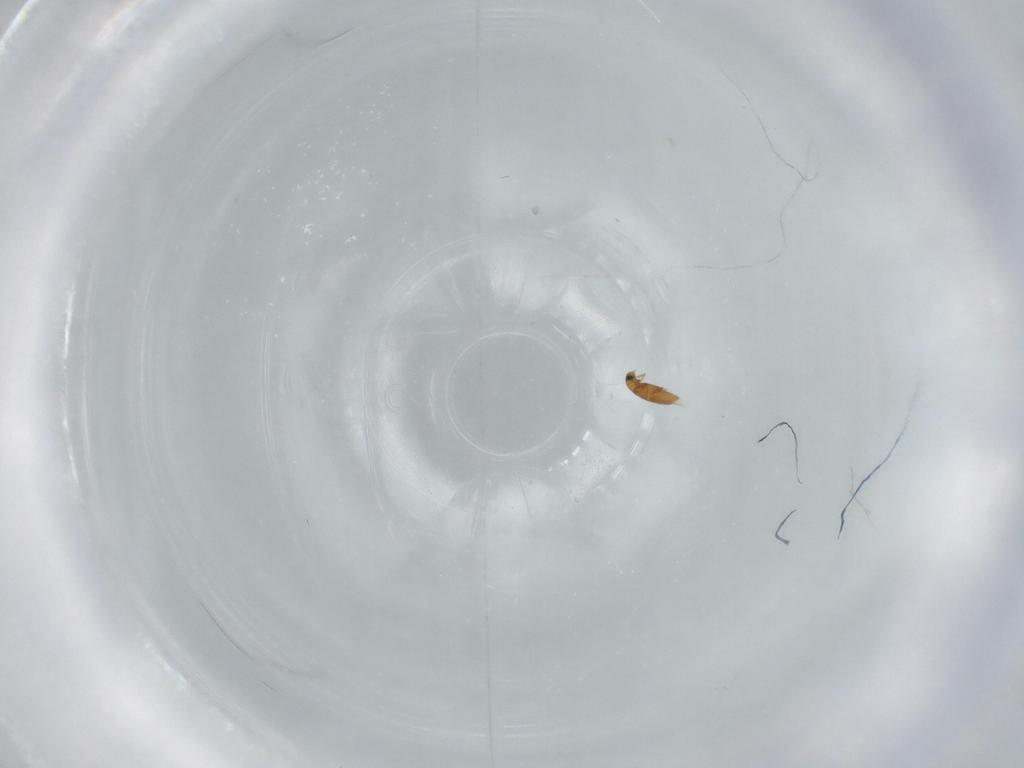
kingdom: Animalia
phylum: Arthropoda
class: Insecta
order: Coleoptera
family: Ptiliidae
